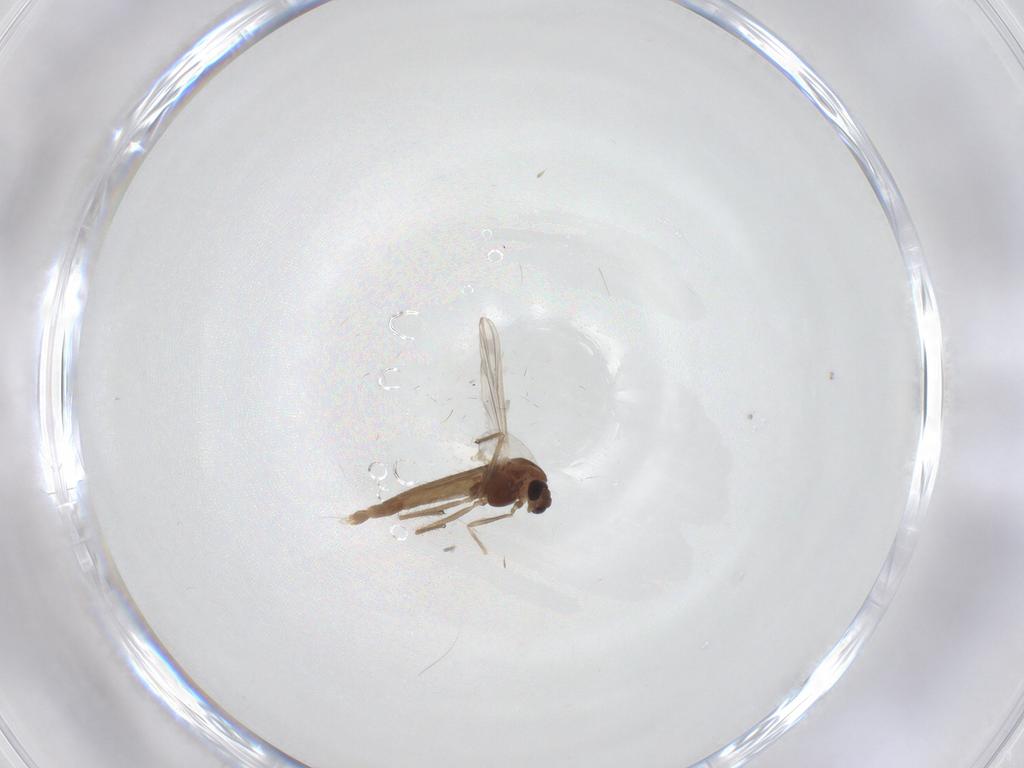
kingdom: Animalia
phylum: Arthropoda
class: Insecta
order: Diptera
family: Chironomidae
